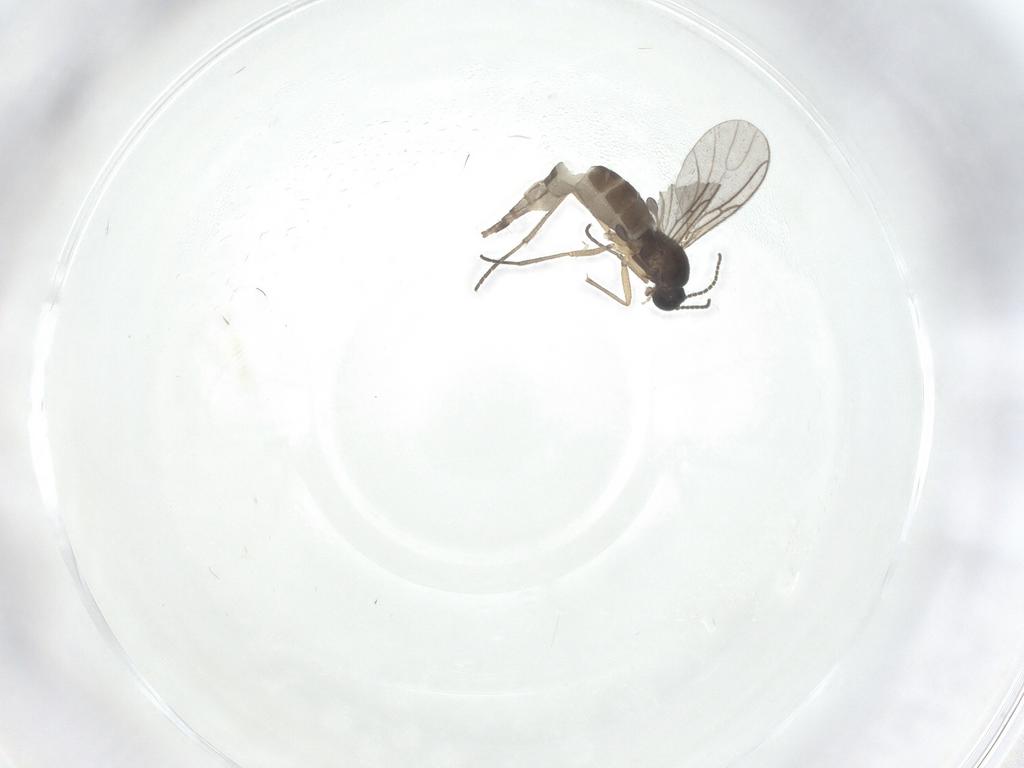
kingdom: Animalia
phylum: Arthropoda
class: Insecta
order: Diptera
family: Sciaridae
